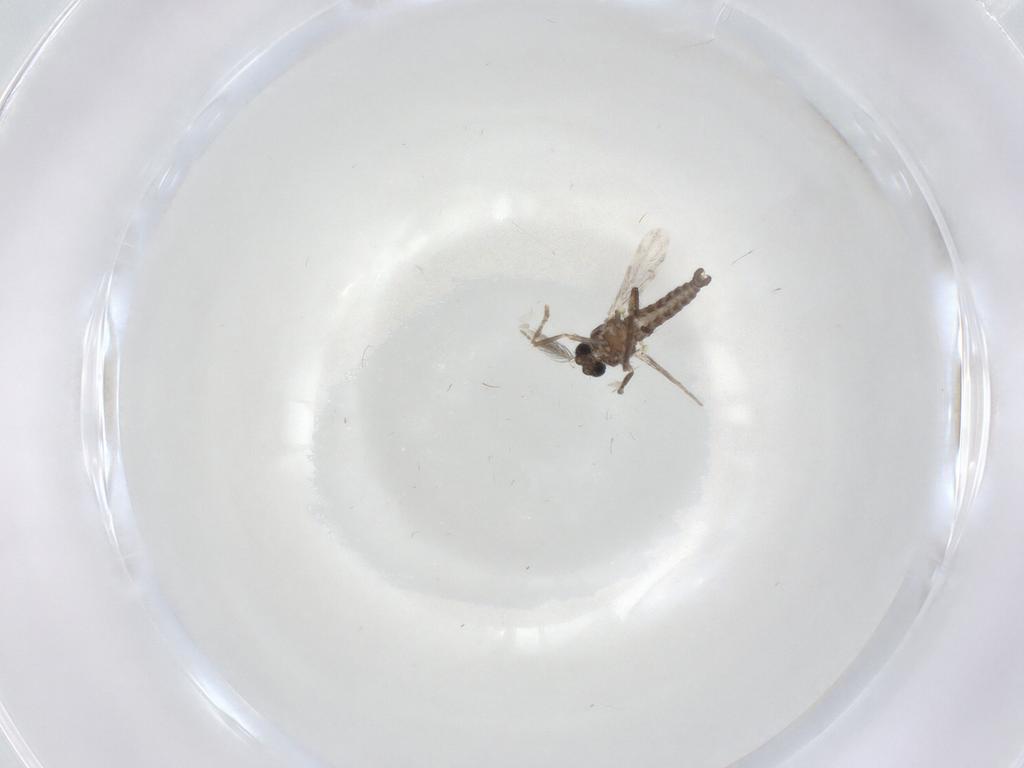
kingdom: Animalia
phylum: Arthropoda
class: Insecta
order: Diptera
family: Ceratopogonidae
